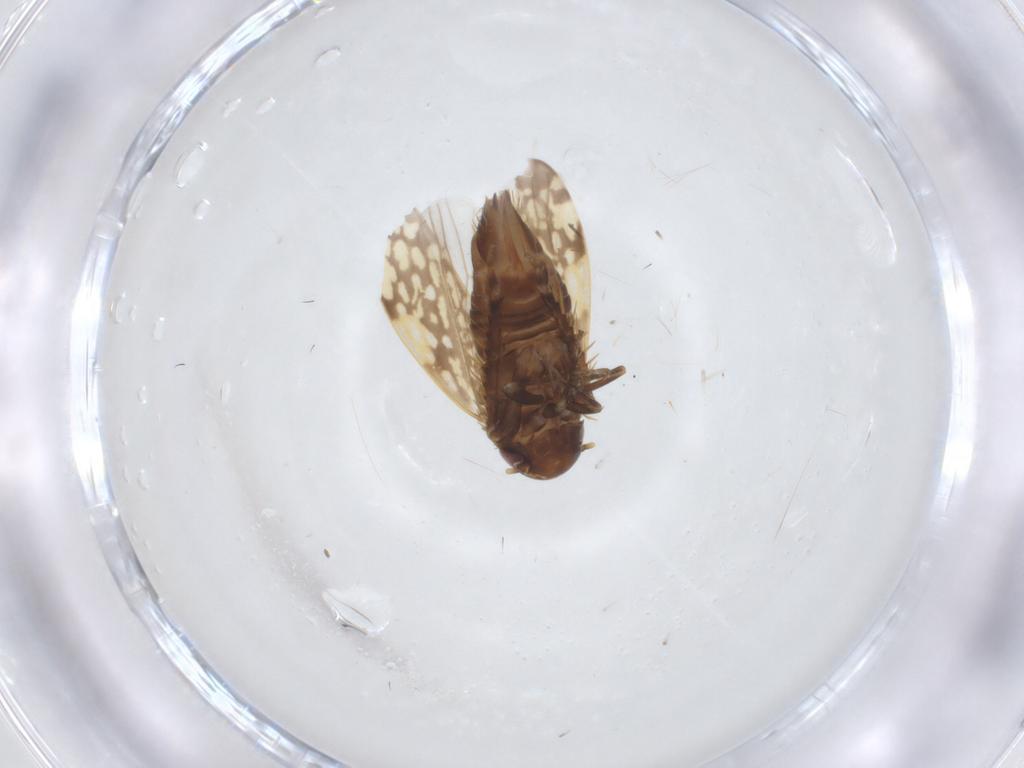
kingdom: Animalia
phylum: Arthropoda
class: Insecta
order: Hemiptera
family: Cicadellidae
